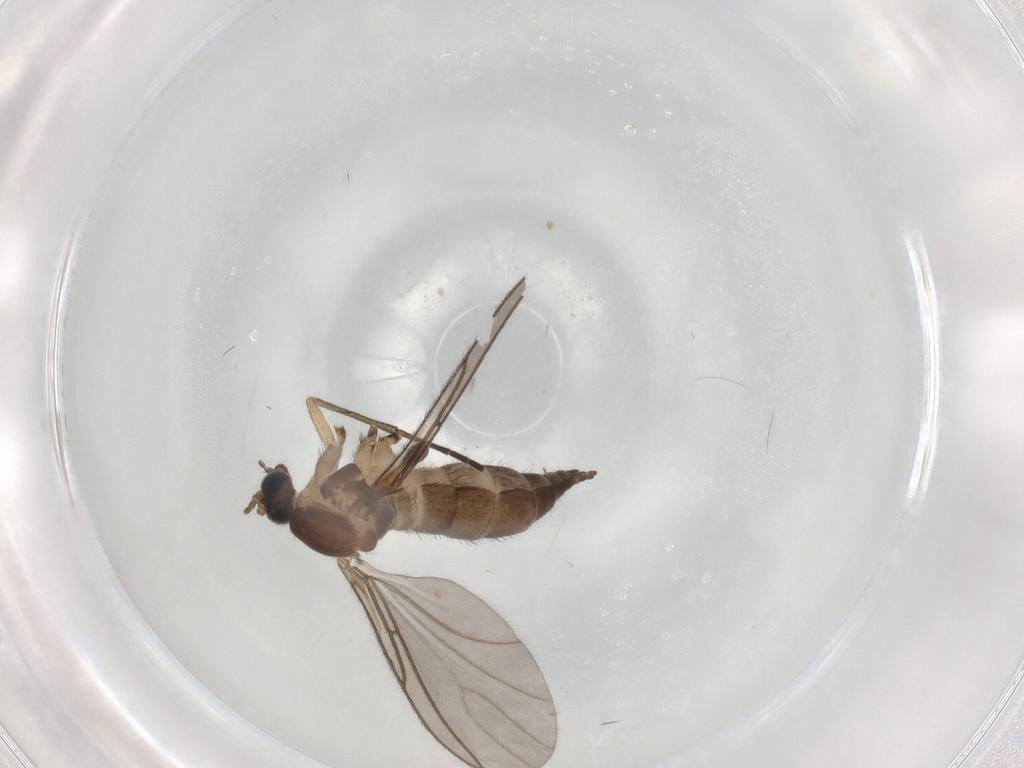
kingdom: Animalia
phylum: Arthropoda
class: Insecta
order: Diptera
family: Sciaridae
